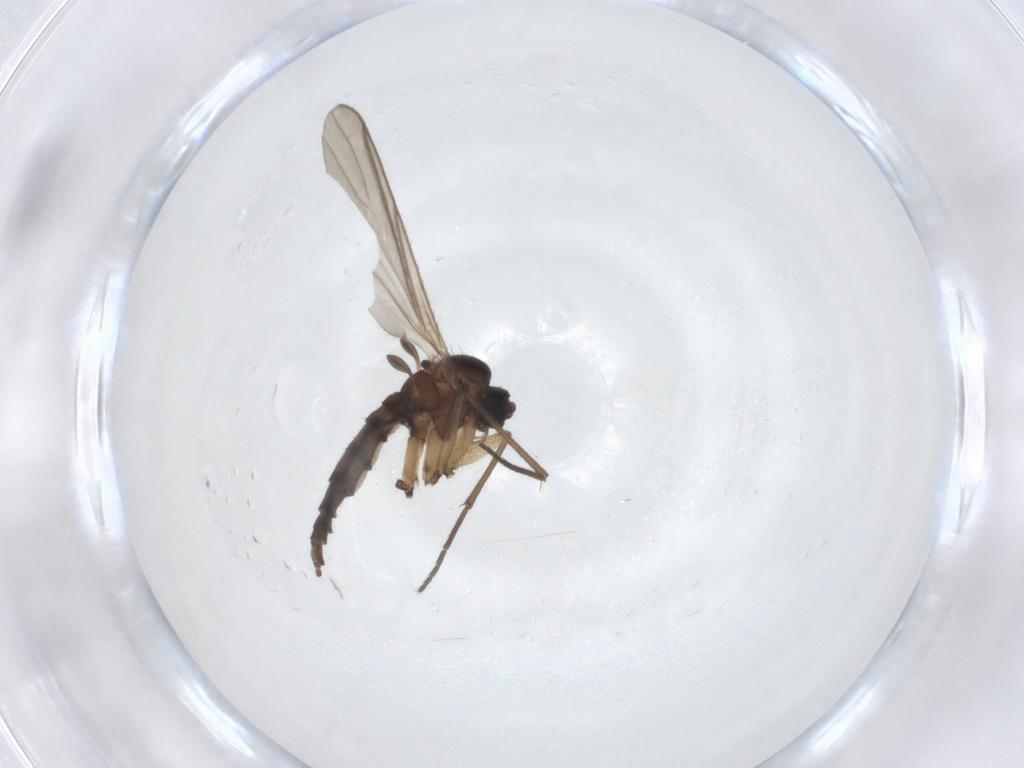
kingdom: Animalia
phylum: Arthropoda
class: Insecta
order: Diptera
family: Sciaridae
